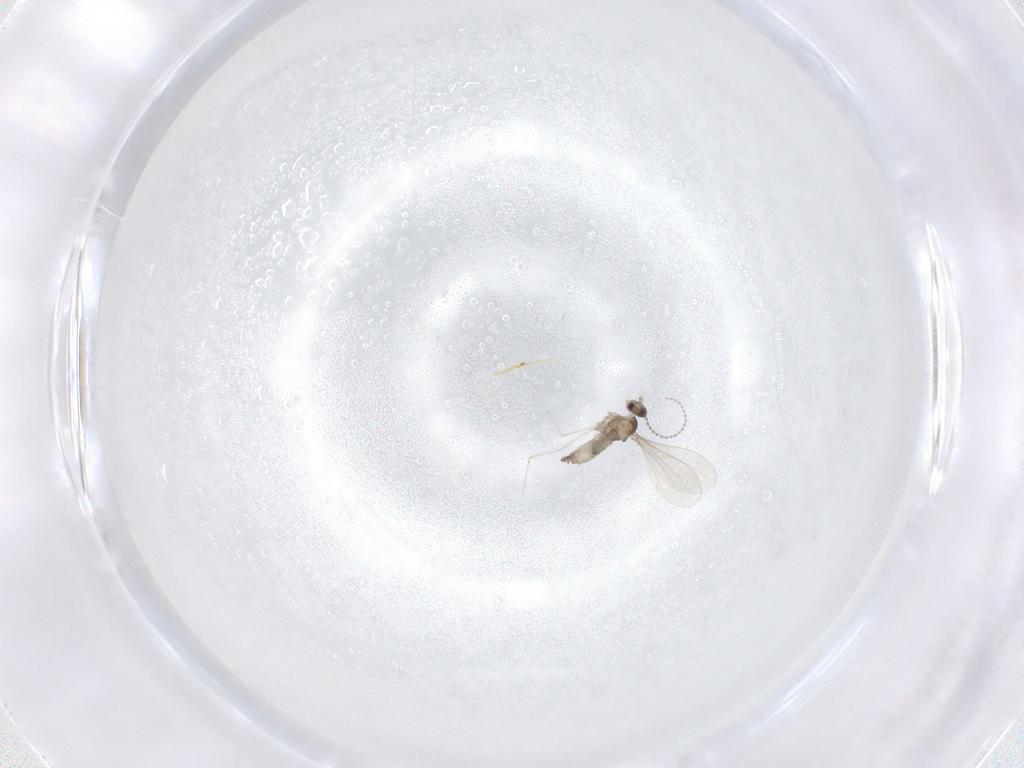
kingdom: Animalia
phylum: Arthropoda
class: Insecta
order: Diptera
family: Cecidomyiidae
